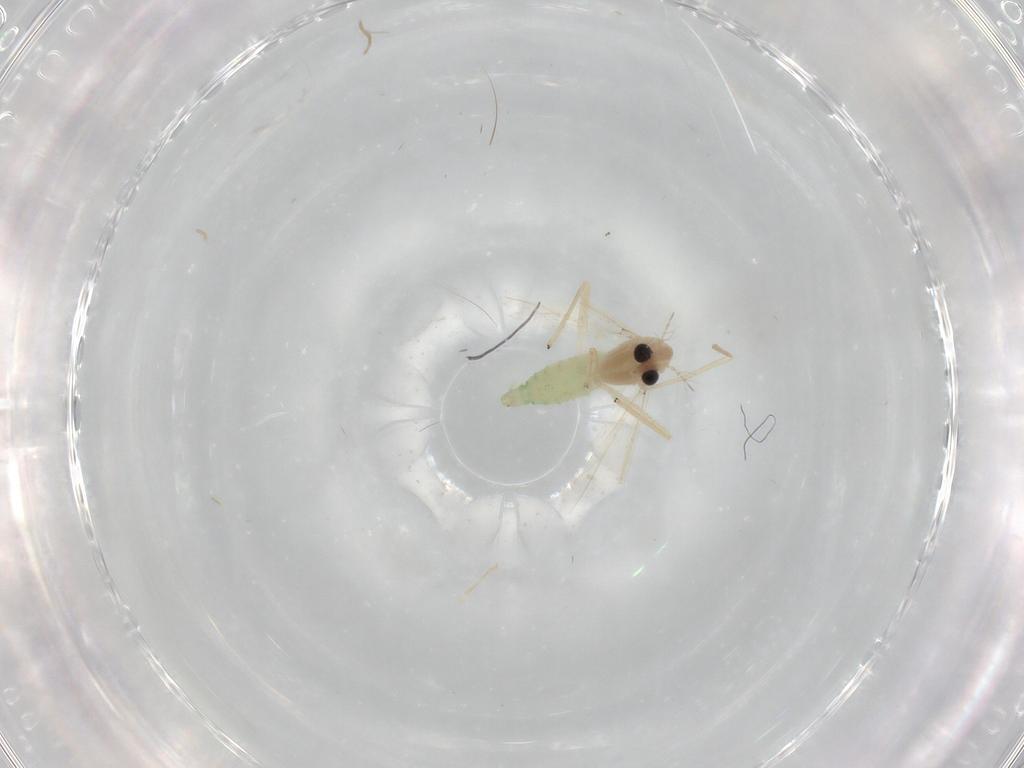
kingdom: Animalia
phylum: Arthropoda
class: Insecta
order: Diptera
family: Chironomidae
